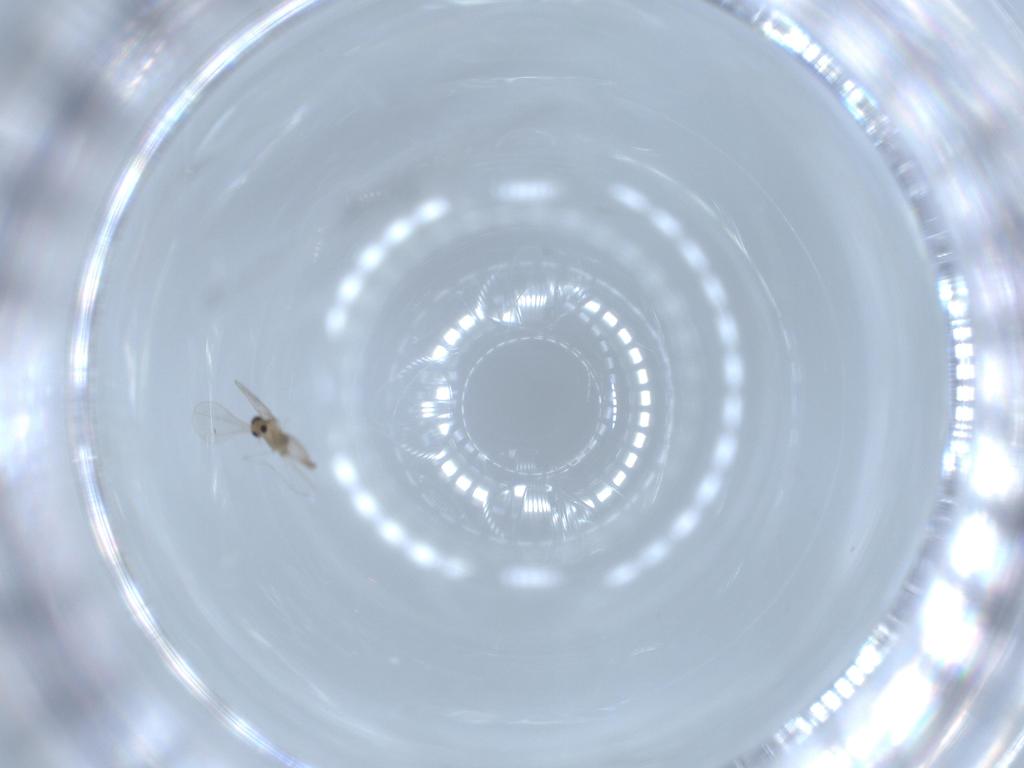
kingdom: Animalia
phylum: Arthropoda
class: Insecta
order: Diptera
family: Cecidomyiidae
